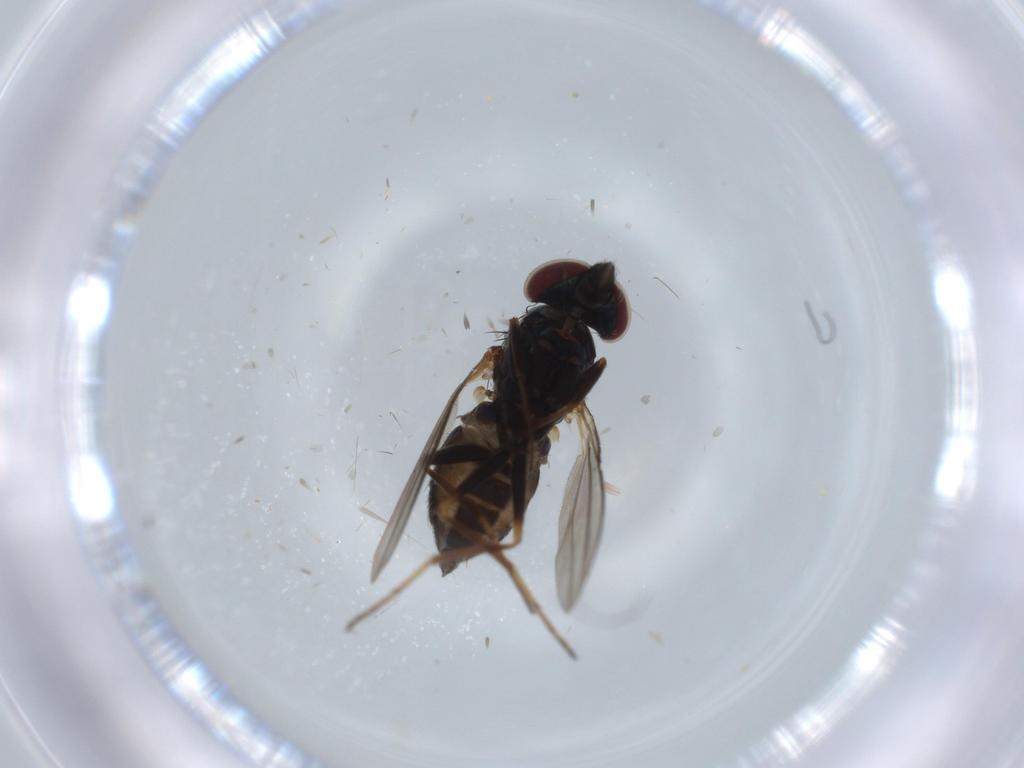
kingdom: Animalia
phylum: Arthropoda
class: Insecta
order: Diptera
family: Dolichopodidae
